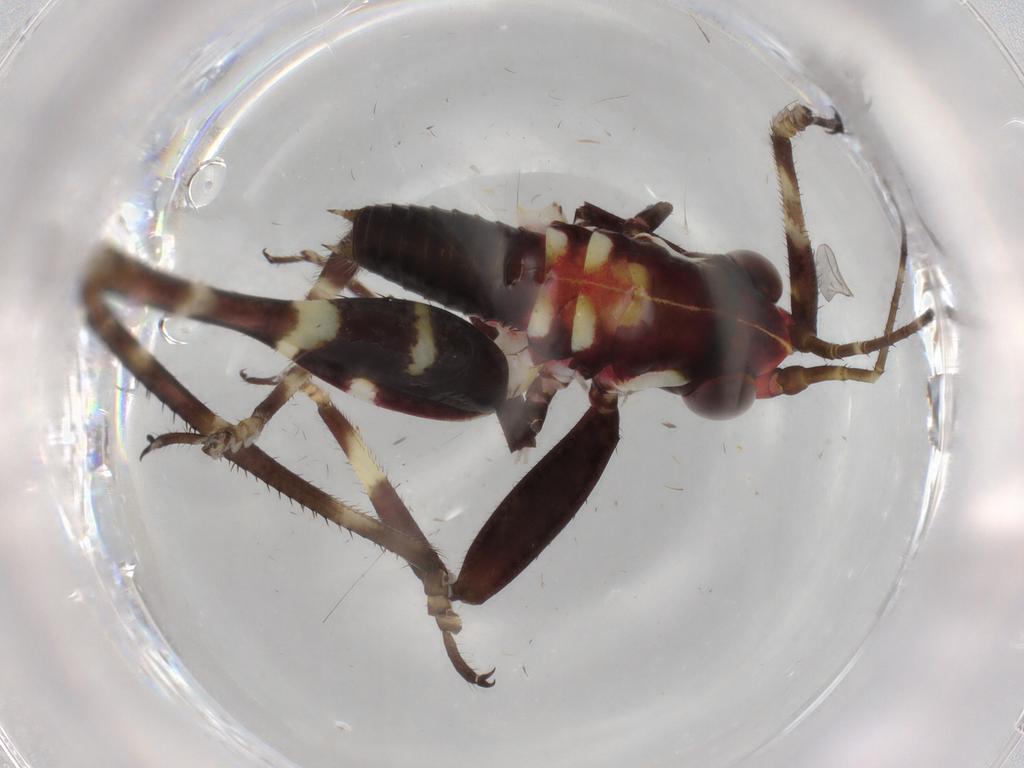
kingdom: Animalia
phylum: Arthropoda
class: Insecta
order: Orthoptera
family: Tettigoniidae
